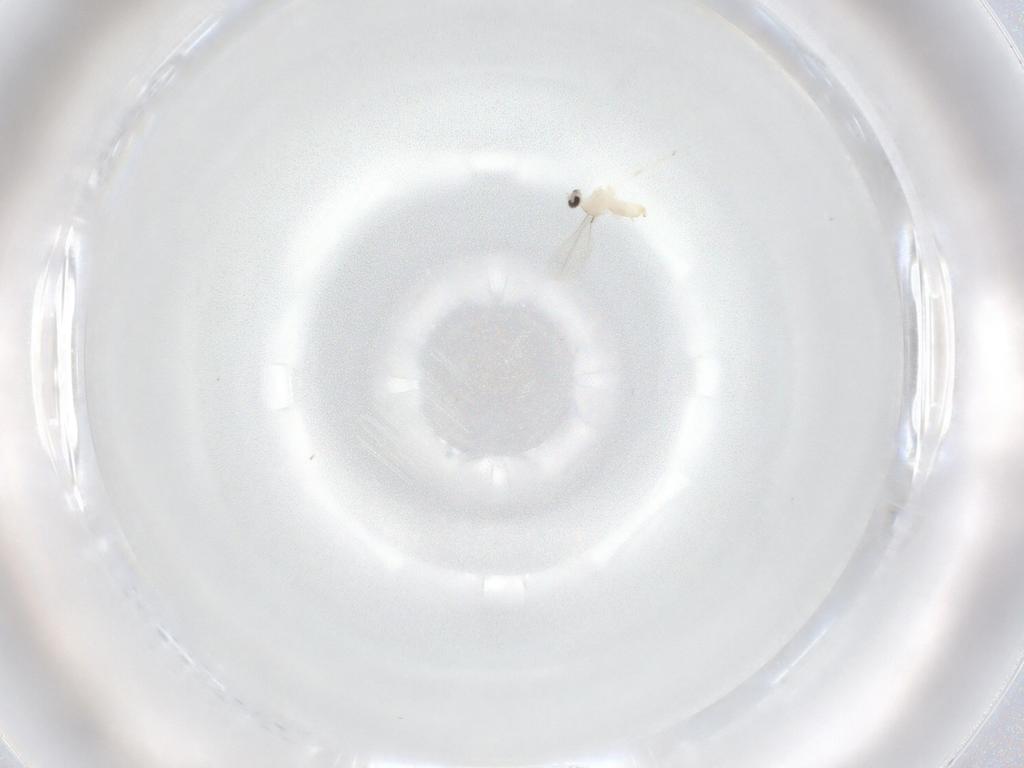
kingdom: Animalia
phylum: Arthropoda
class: Insecta
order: Diptera
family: Cecidomyiidae
